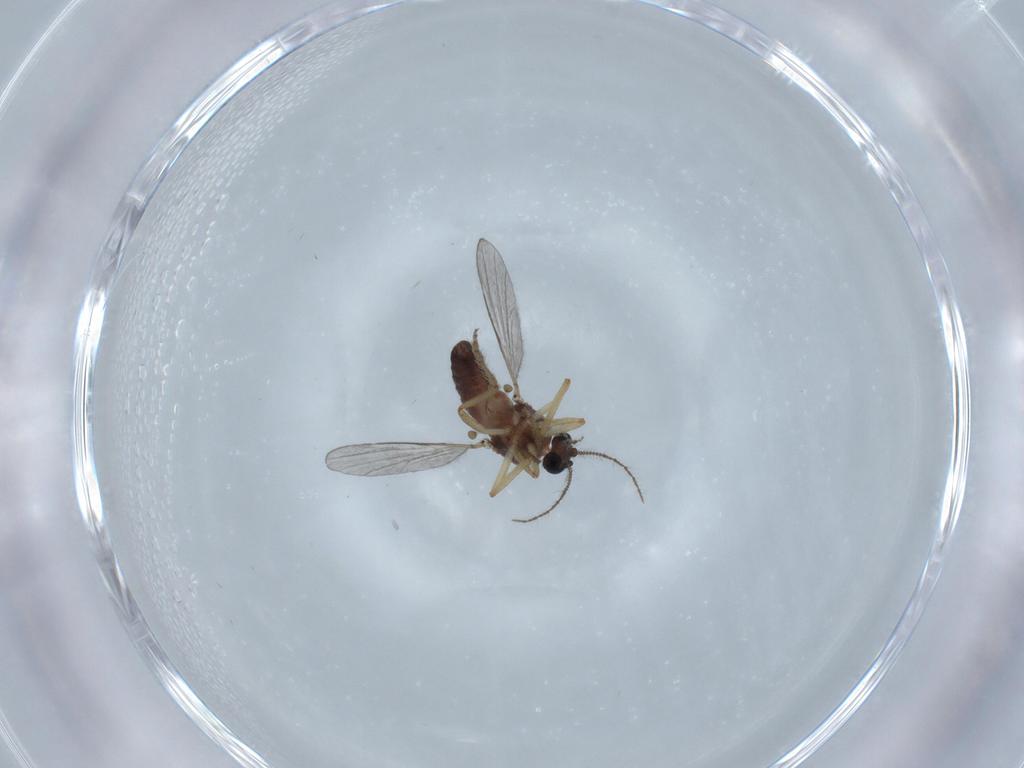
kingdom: Animalia
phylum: Arthropoda
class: Insecta
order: Diptera
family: Ceratopogonidae
